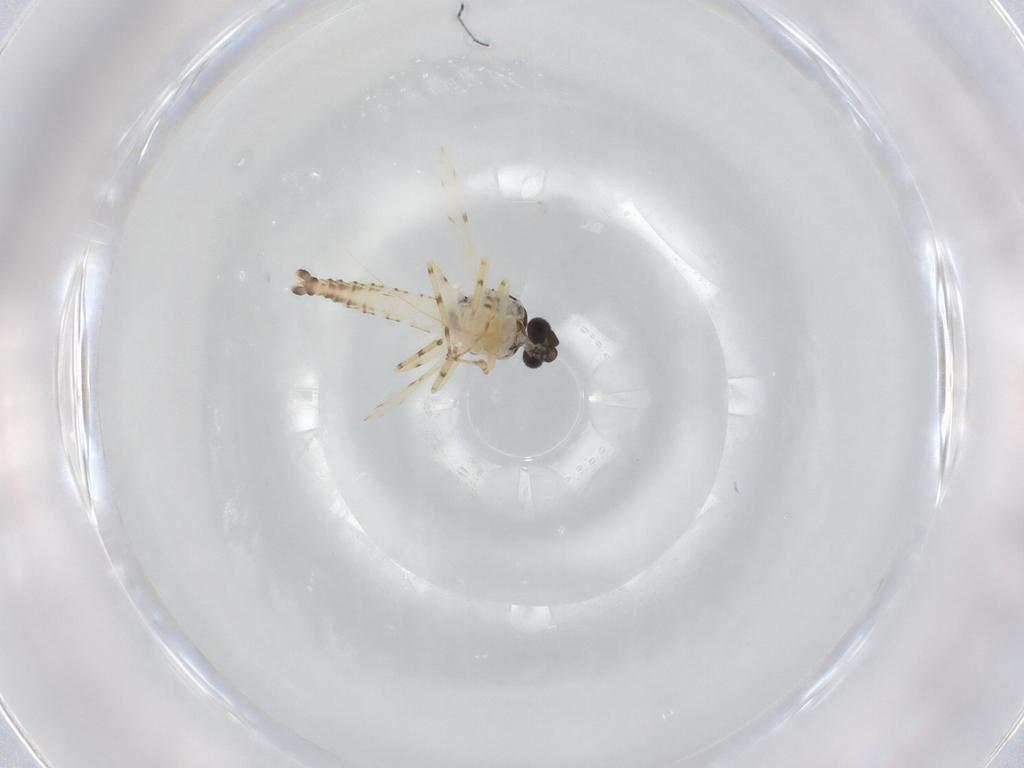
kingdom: Animalia
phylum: Arthropoda
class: Insecta
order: Diptera
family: Ceratopogonidae
